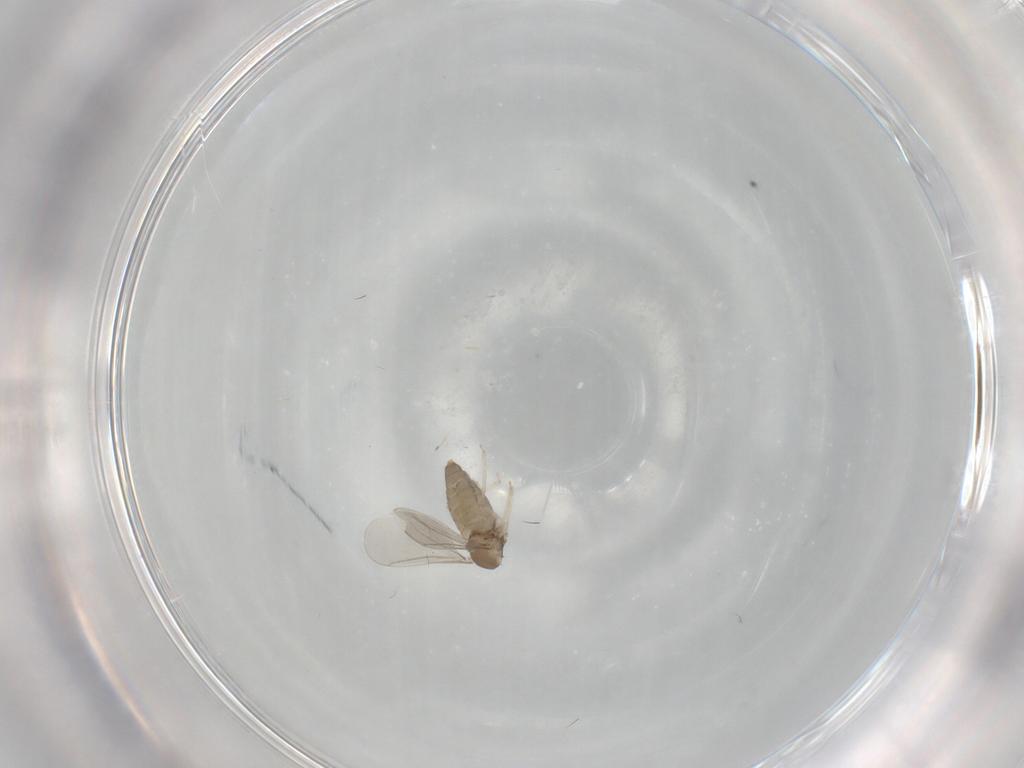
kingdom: Animalia
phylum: Arthropoda
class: Insecta
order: Diptera
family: Cecidomyiidae
